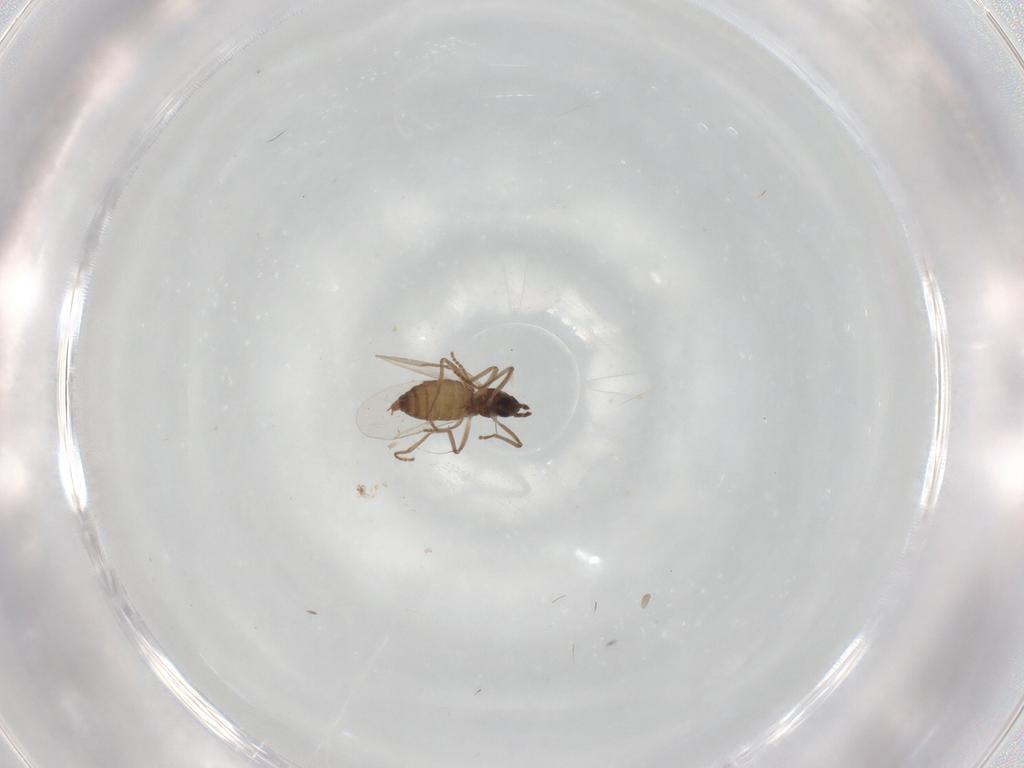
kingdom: Animalia
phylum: Arthropoda
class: Insecta
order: Diptera
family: Cecidomyiidae
